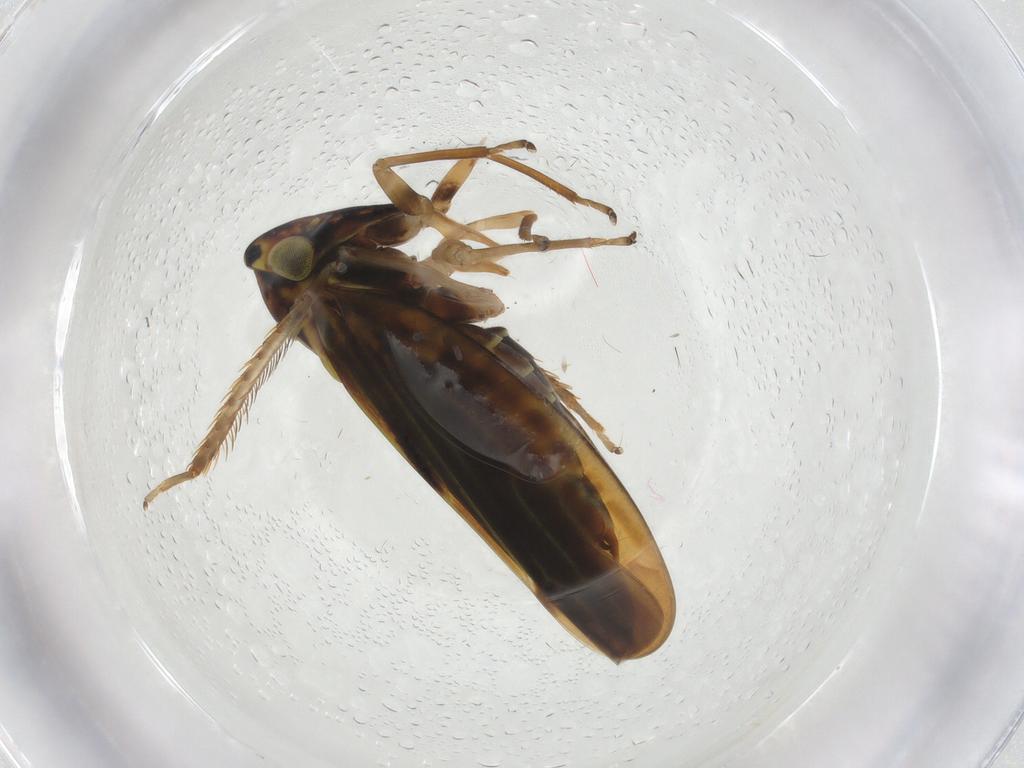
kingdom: Animalia
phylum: Arthropoda
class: Insecta
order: Hemiptera
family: Cicadellidae
